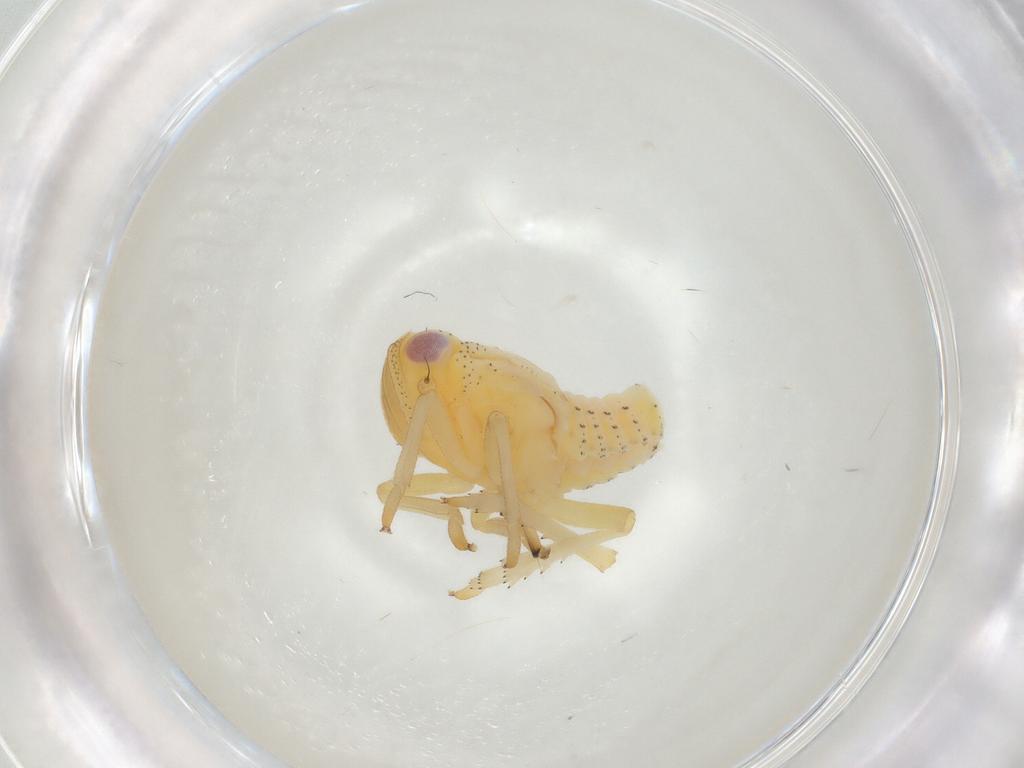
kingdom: Animalia
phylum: Arthropoda
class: Insecta
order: Hemiptera
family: Tropiduchidae
